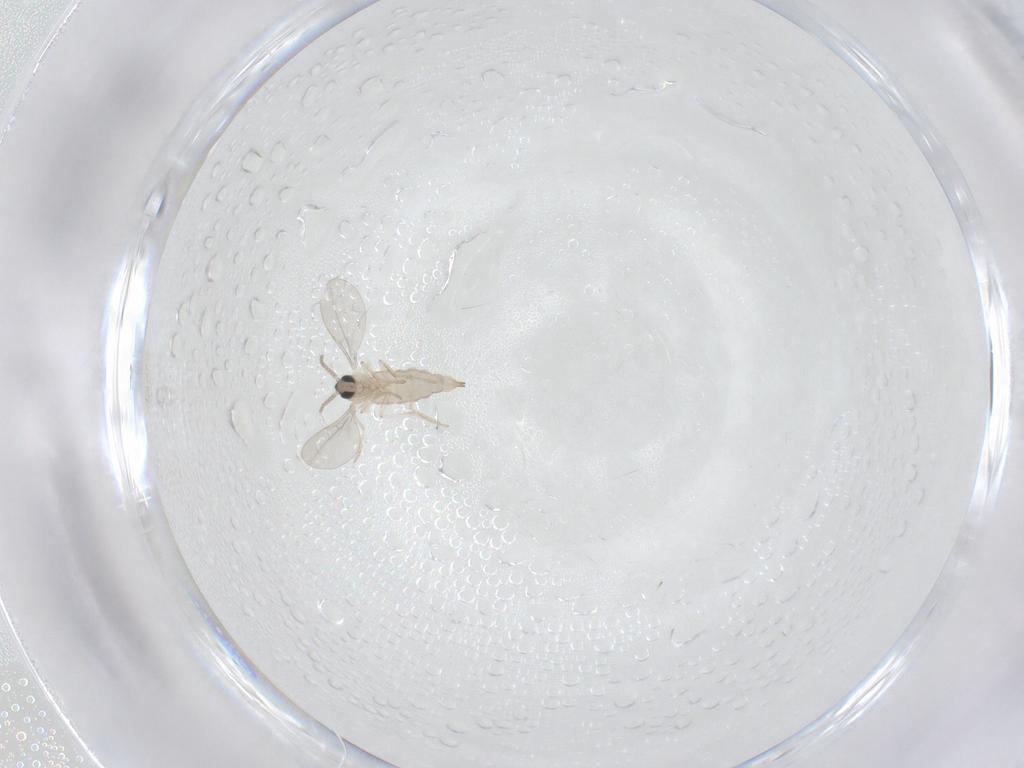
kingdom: Animalia
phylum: Arthropoda
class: Insecta
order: Diptera
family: Cecidomyiidae
